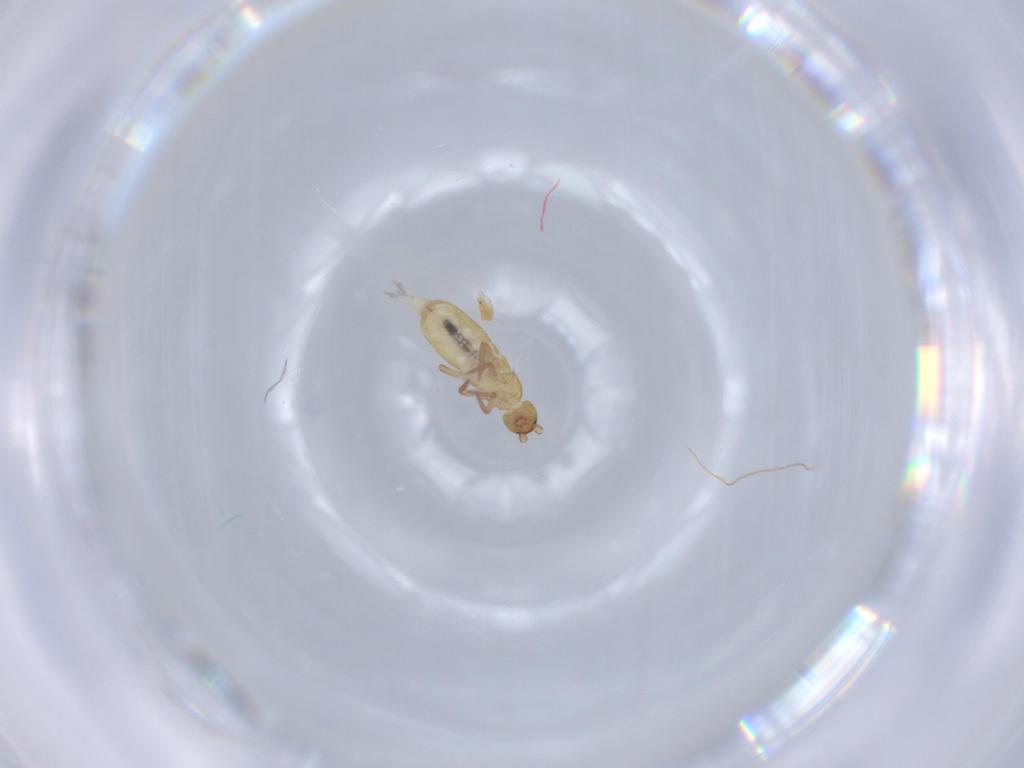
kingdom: Animalia
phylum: Arthropoda
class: Collembola
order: Entomobryomorpha
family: Tomoceridae
